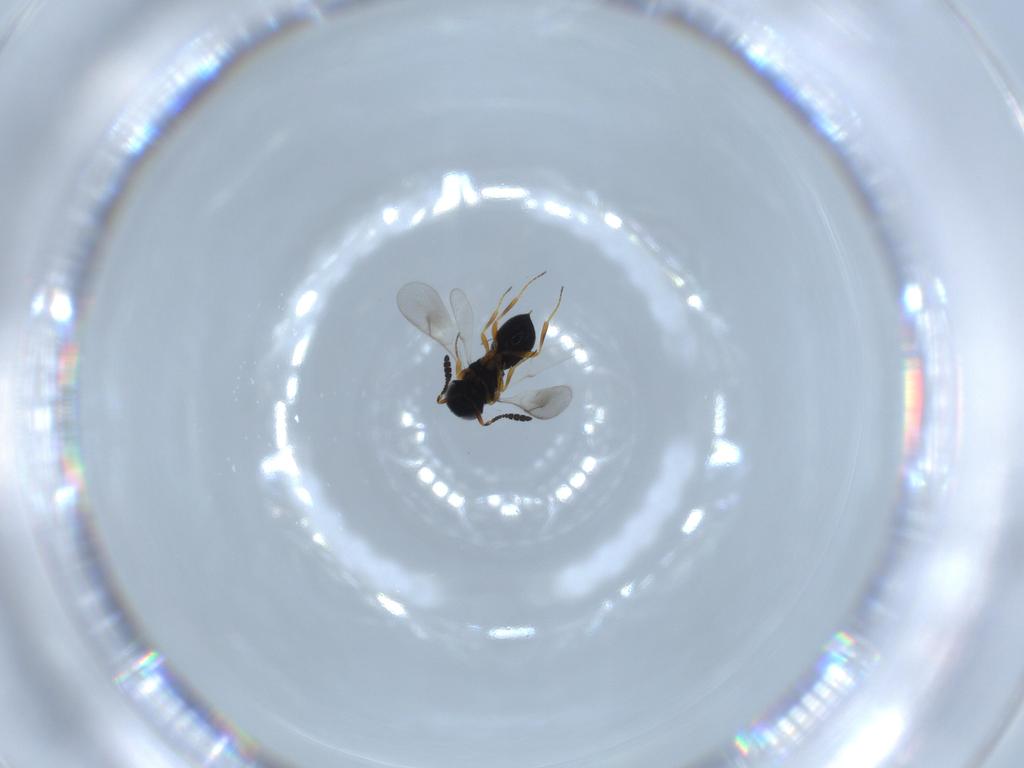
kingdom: Animalia
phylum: Arthropoda
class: Insecta
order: Hymenoptera
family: Scelionidae
